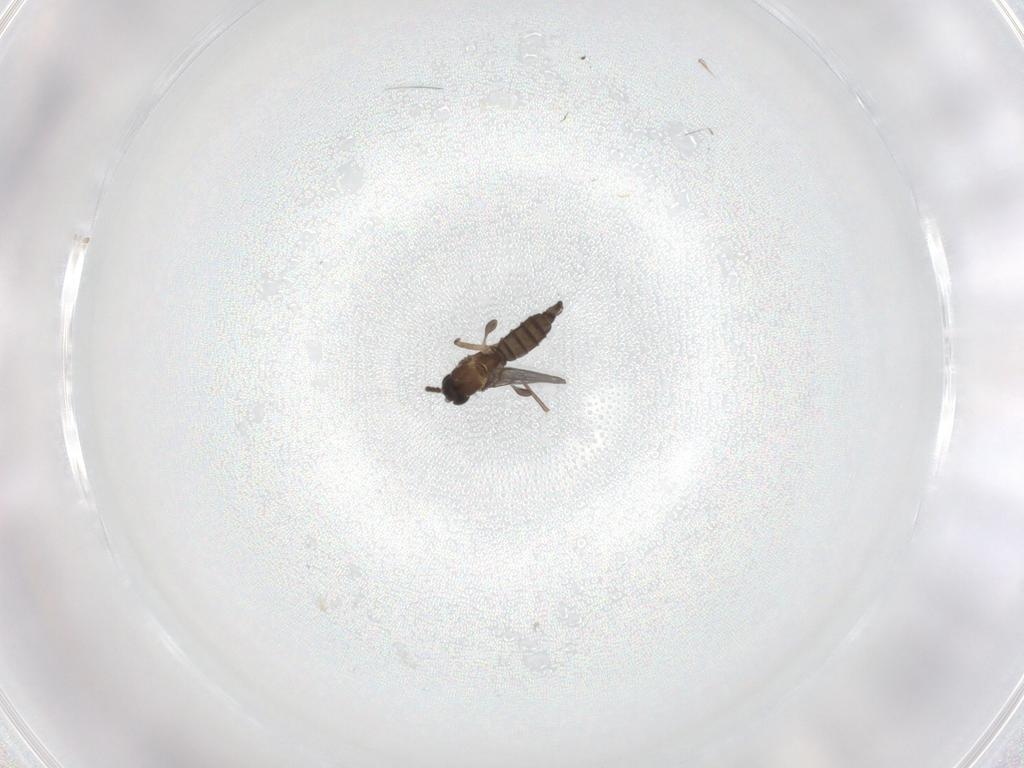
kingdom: Animalia
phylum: Arthropoda
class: Insecta
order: Diptera
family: Sciaridae
